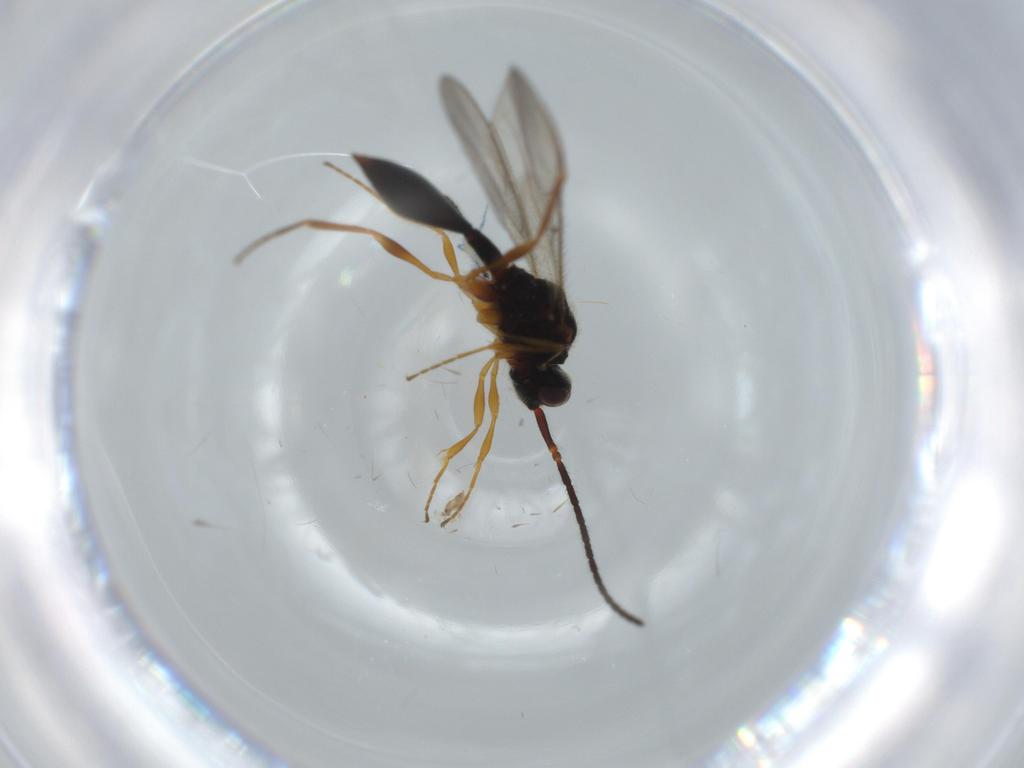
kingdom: Animalia
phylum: Arthropoda
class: Insecta
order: Hymenoptera
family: Diapriidae
